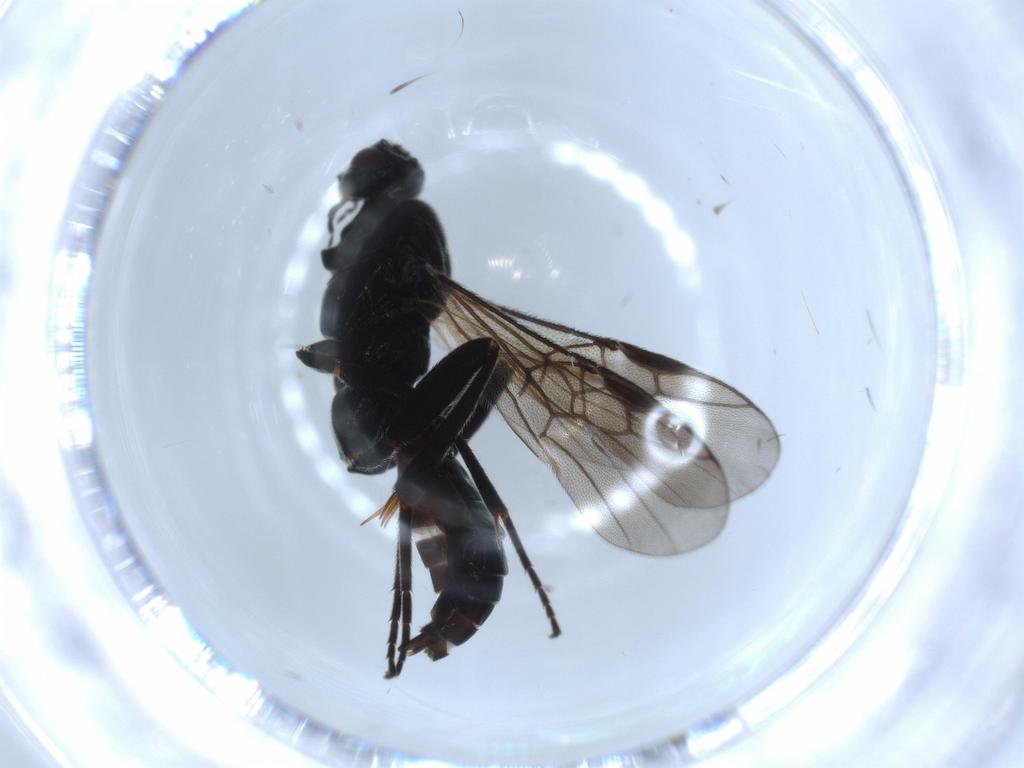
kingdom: Animalia
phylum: Arthropoda
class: Insecta
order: Hymenoptera
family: Braconidae
